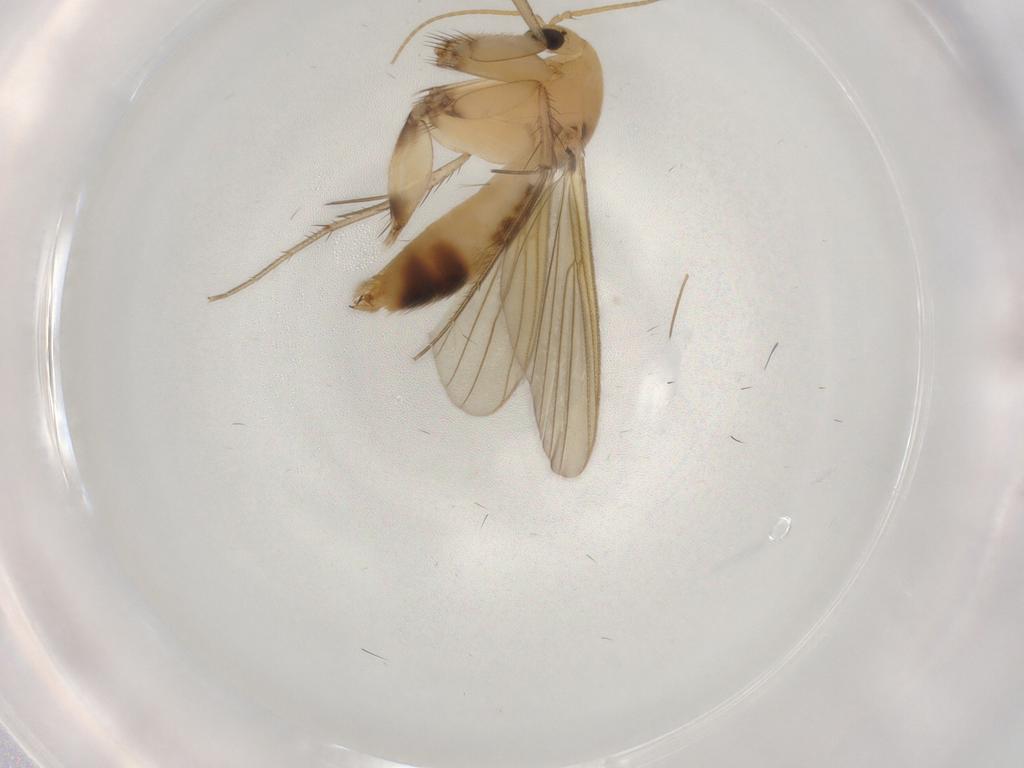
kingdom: Animalia
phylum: Arthropoda
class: Insecta
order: Diptera
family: Mycetophilidae
